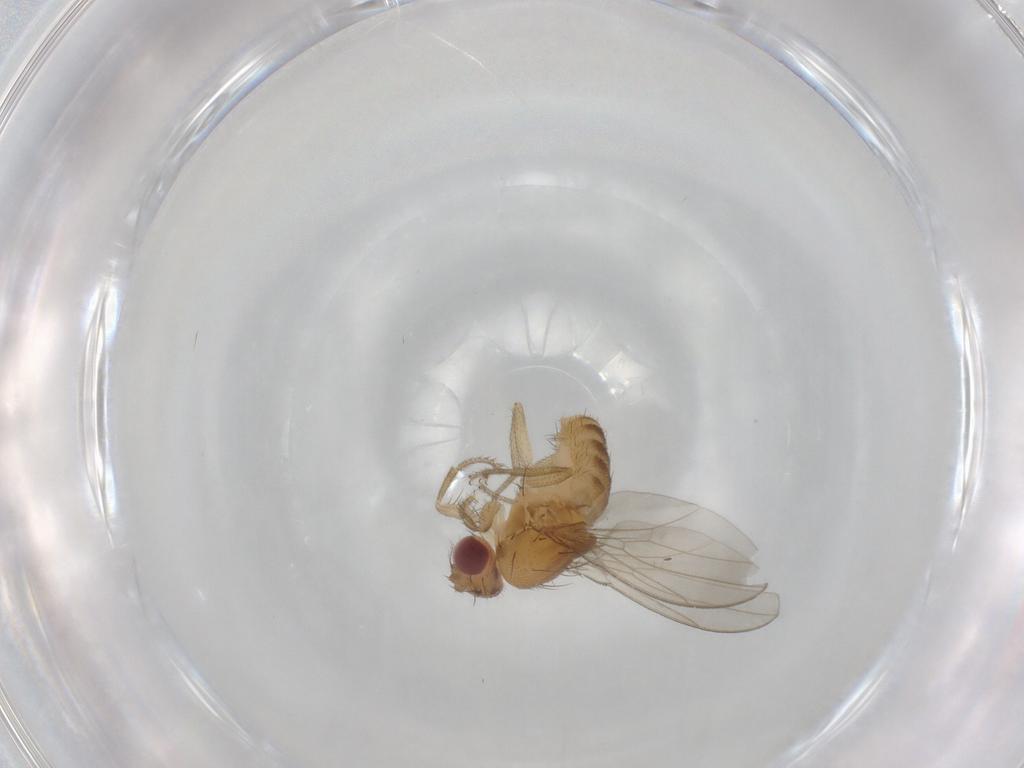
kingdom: Animalia
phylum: Arthropoda
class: Insecta
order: Diptera
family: Drosophilidae
